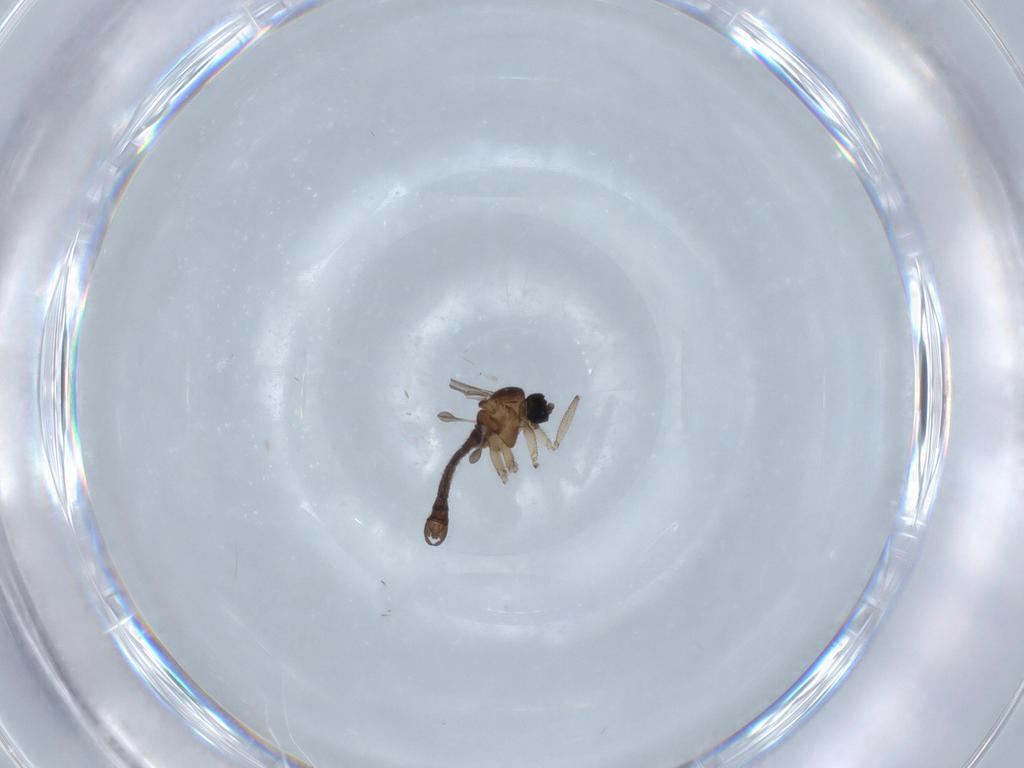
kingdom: Animalia
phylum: Arthropoda
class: Insecta
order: Diptera
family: Sciaridae
